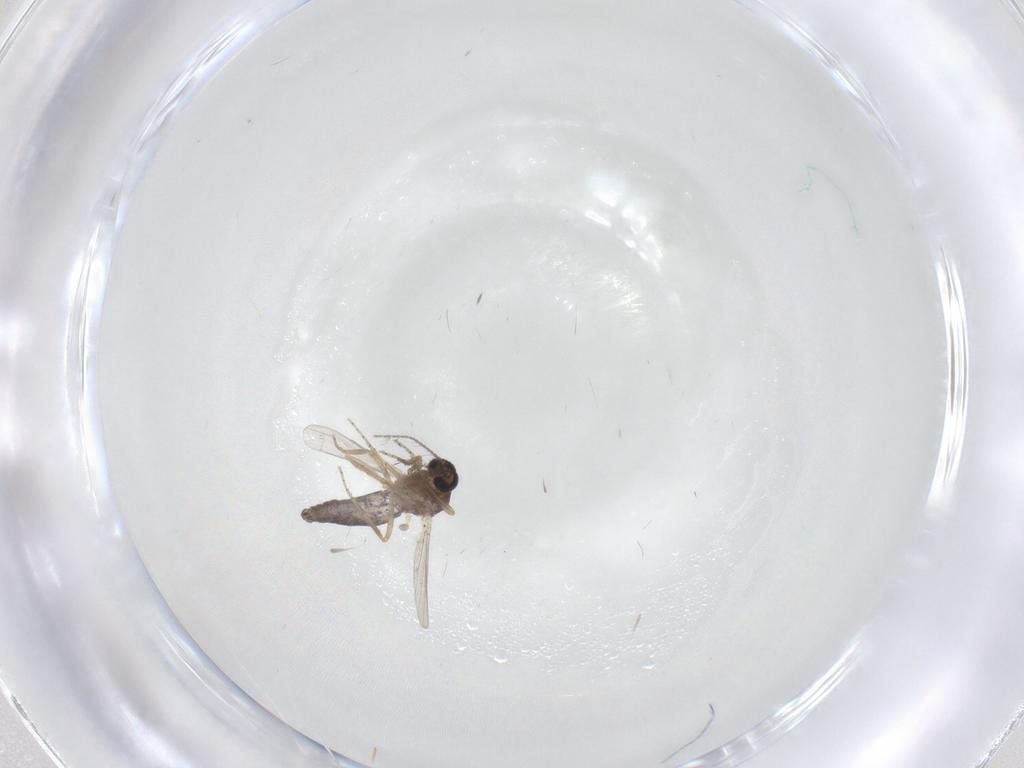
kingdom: Animalia
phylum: Arthropoda
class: Insecta
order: Diptera
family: Ceratopogonidae
